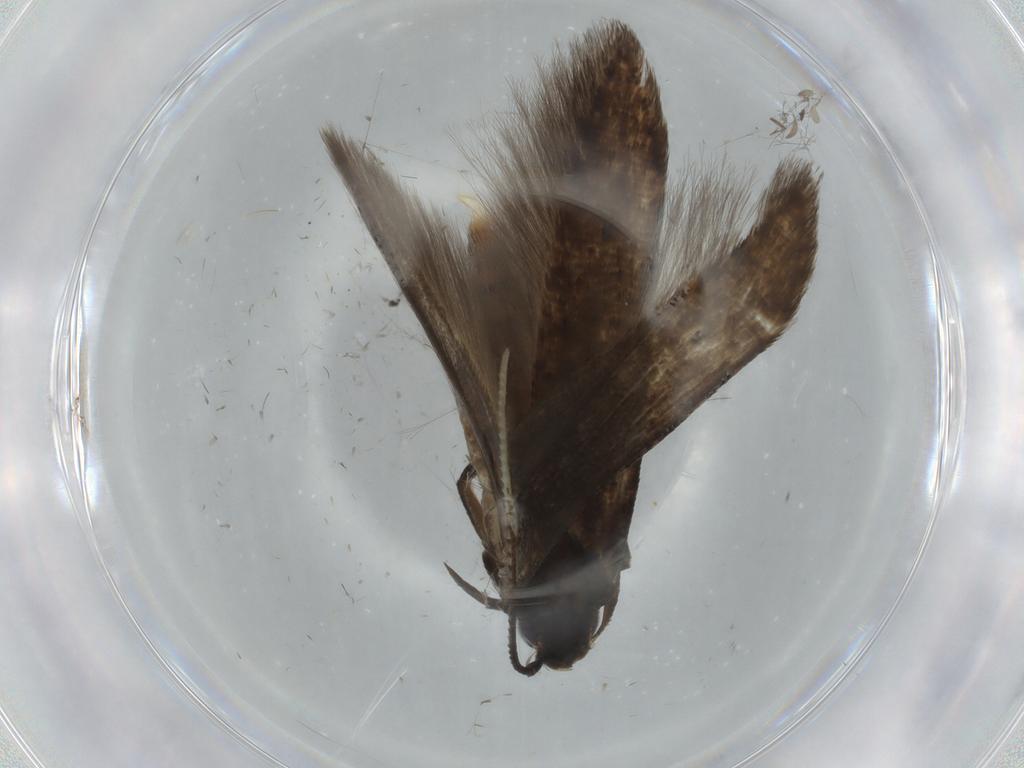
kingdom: Animalia
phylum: Arthropoda
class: Insecta
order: Lepidoptera
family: Autostichidae
